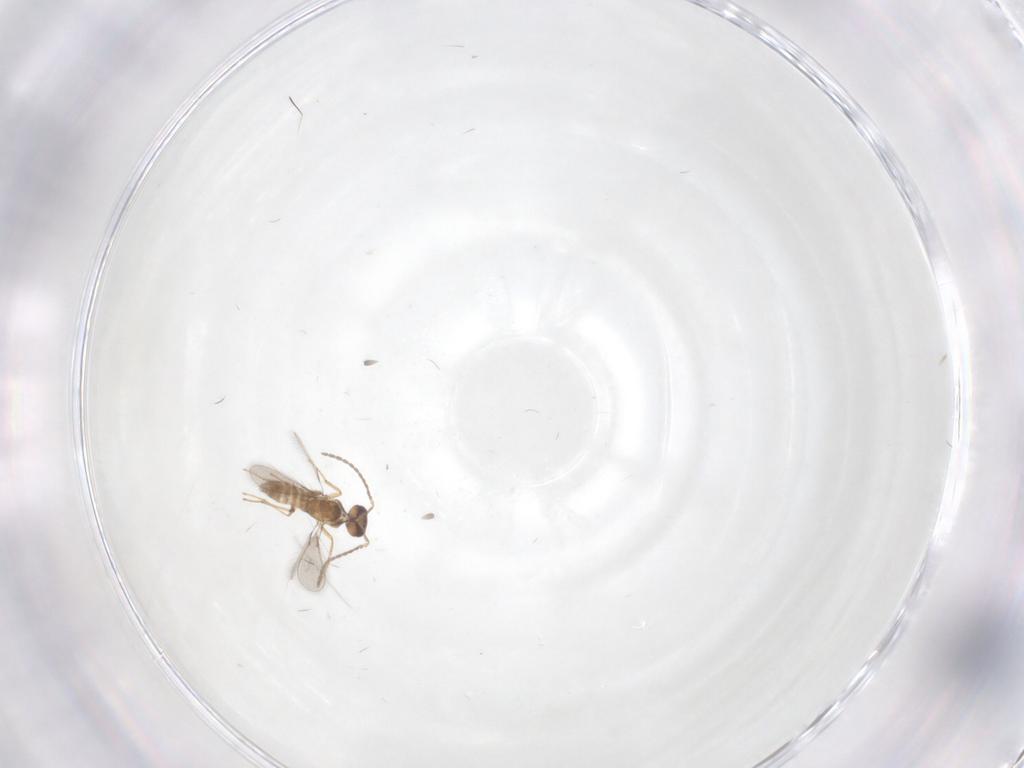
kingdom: Animalia
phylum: Arthropoda
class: Insecta
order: Hymenoptera
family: Mymaridae
